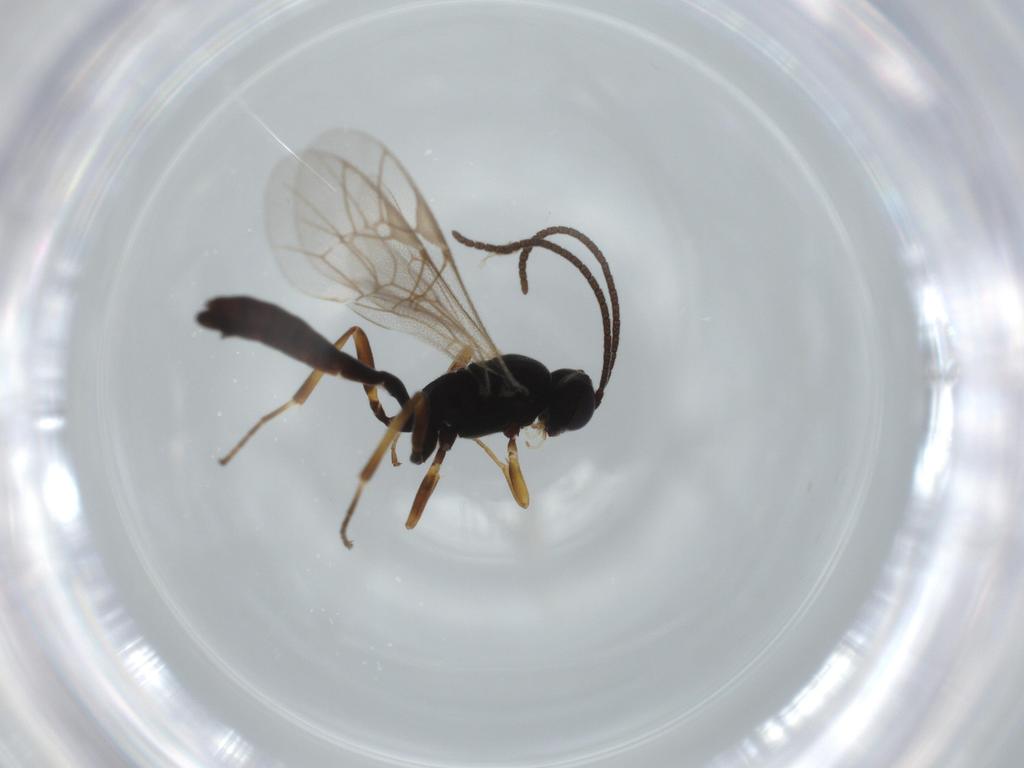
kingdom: Animalia
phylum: Arthropoda
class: Insecta
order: Hymenoptera
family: Ichneumonidae
